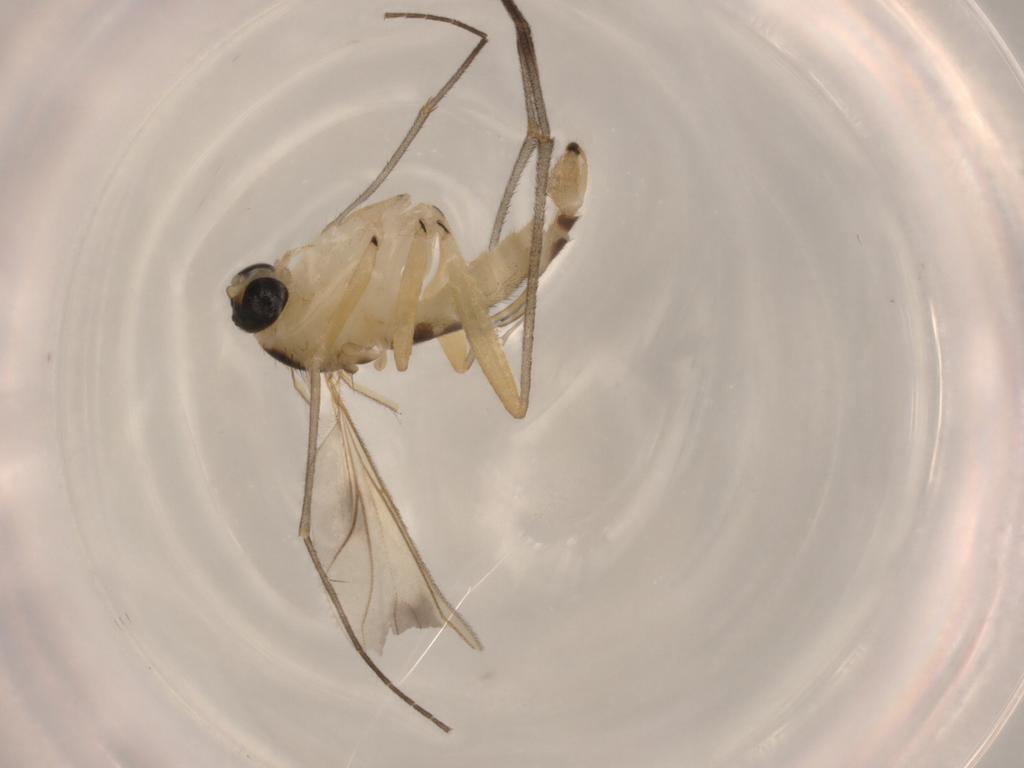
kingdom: Animalia
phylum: Arthropoda
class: Insecta
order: Diptera
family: Sciaridae
